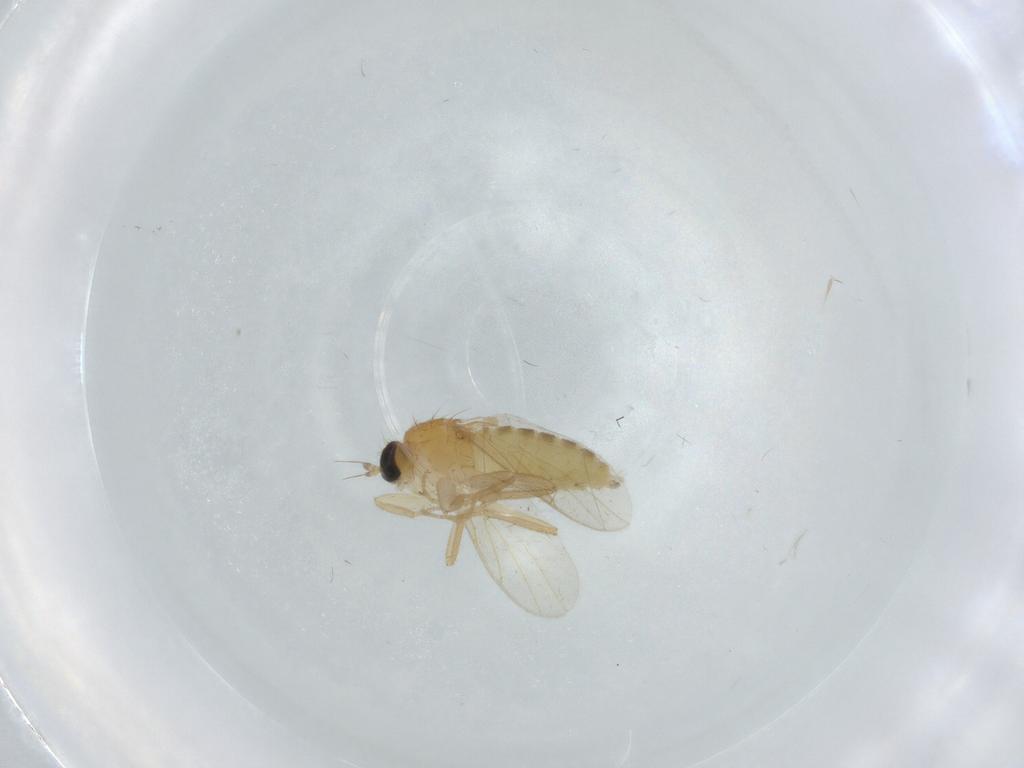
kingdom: Animalia
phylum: Arthropoda
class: Insecta
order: Diptera
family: Hybotidae
